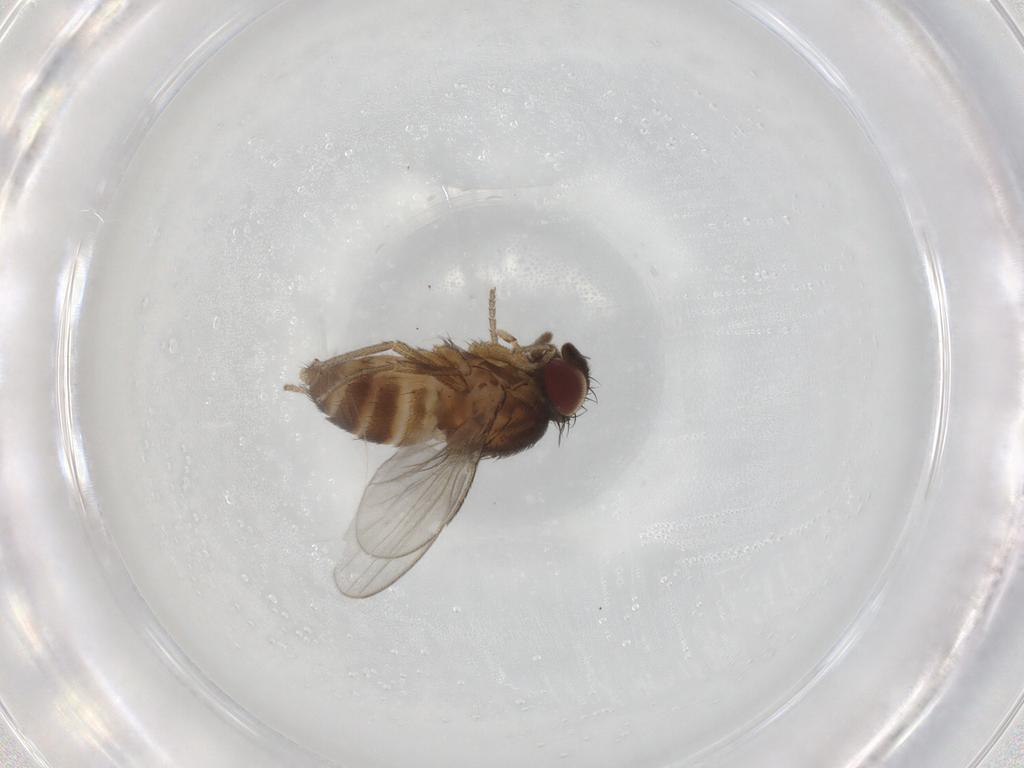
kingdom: Animalia
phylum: Arthropoda
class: Insecta
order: Diptera
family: Milichiidae
